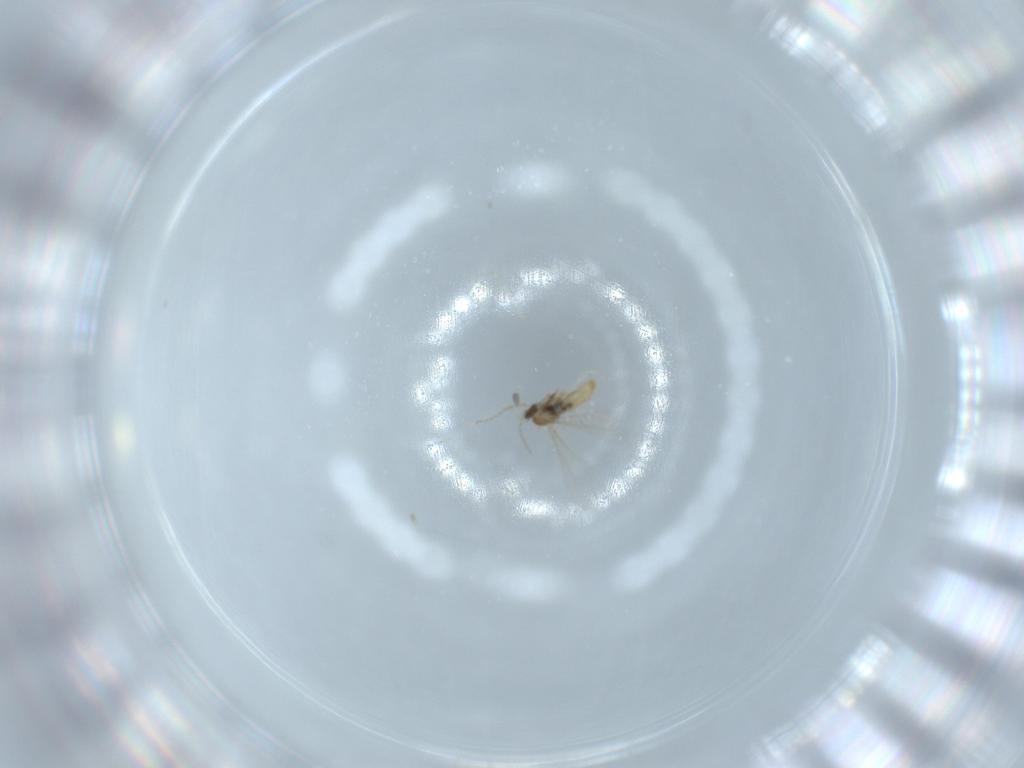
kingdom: Animalia
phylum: Arthropoda
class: Insecta
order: Diptera
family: Cecidomyiidae
